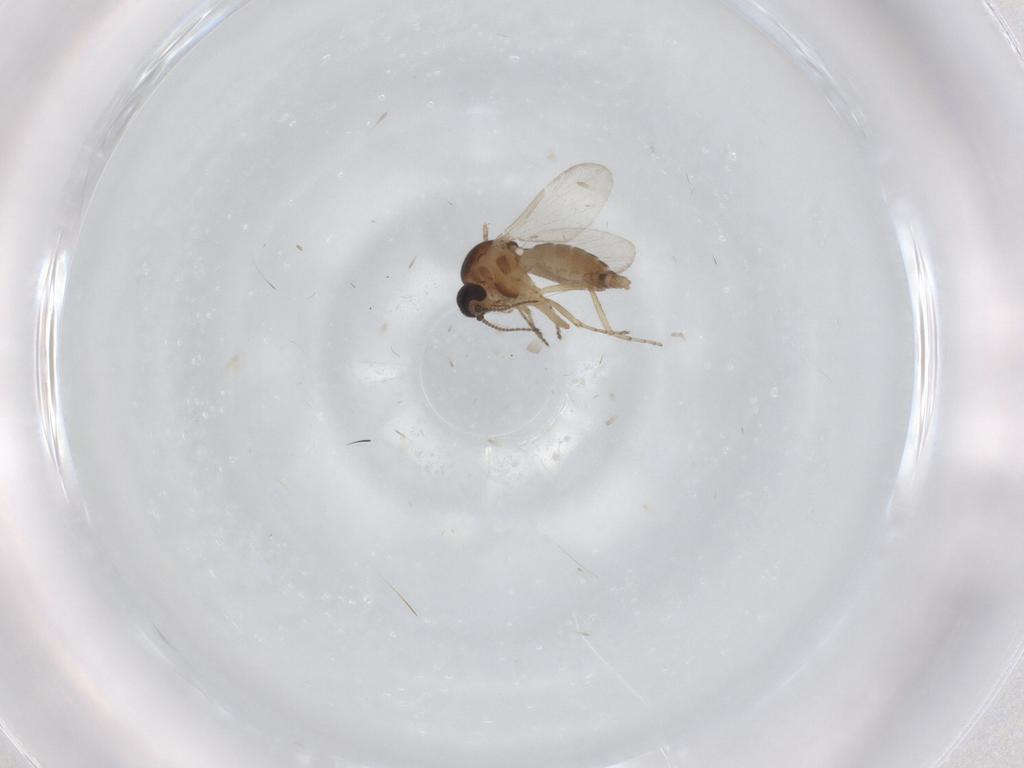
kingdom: Animalia
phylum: Arthropoda
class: Insecta
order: Diptera
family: Ceratopogonidae
